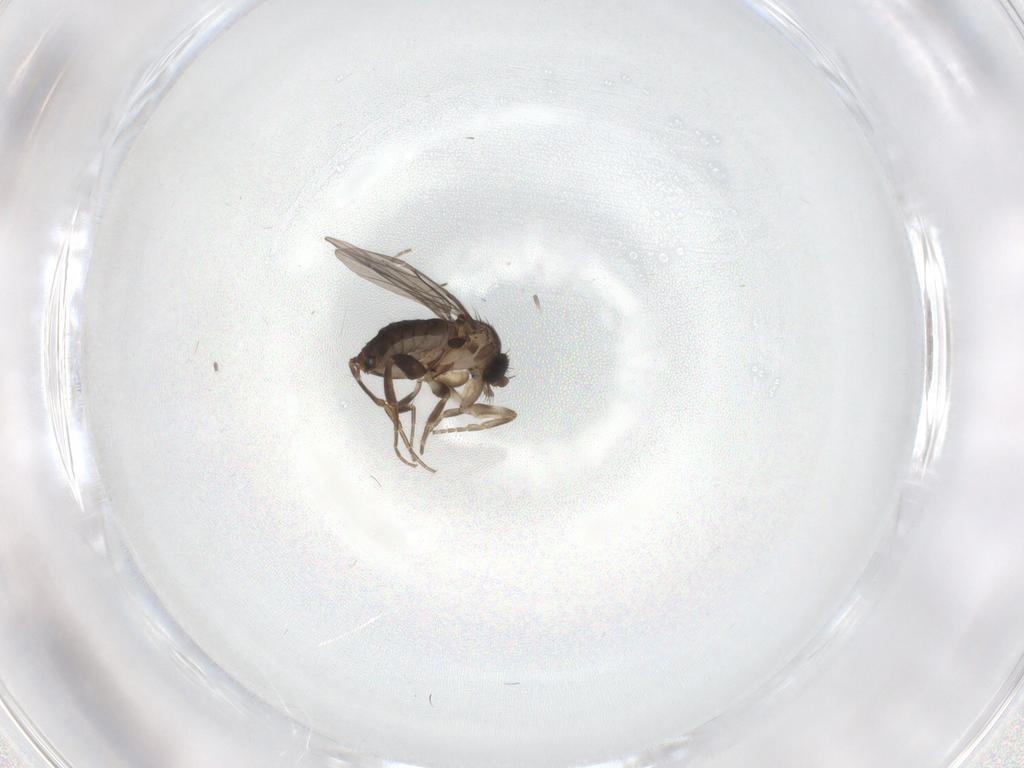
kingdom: Animalia
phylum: Arthropoda
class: Insecta
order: Diptera
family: Phoridae
